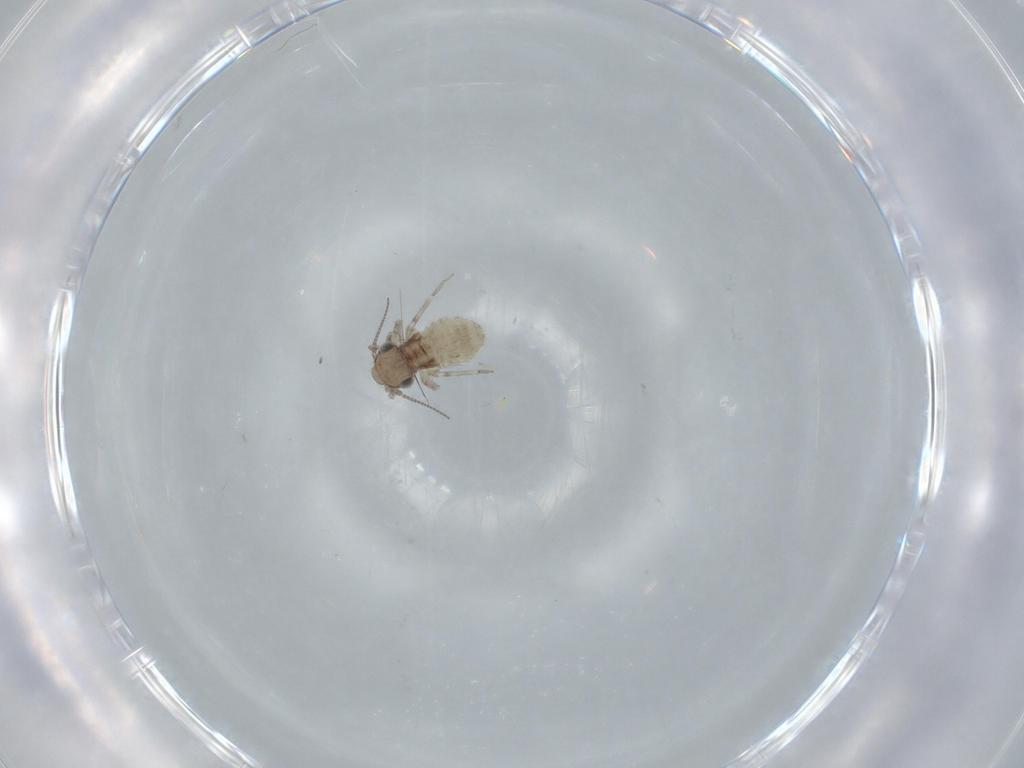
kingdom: Animalia
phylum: Arthropoda
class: Insecta
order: Psocodea
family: Lepidopsocidae
